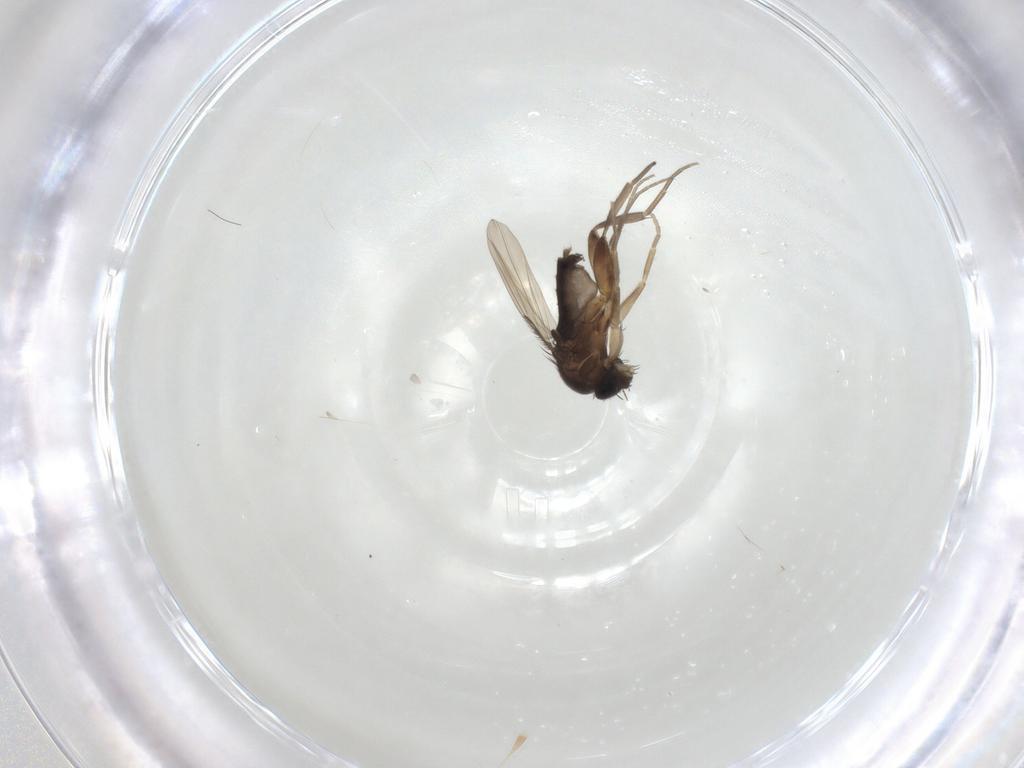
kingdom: Animalia
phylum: Arthropoda
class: Insecta
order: Diptera
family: Phoridae
